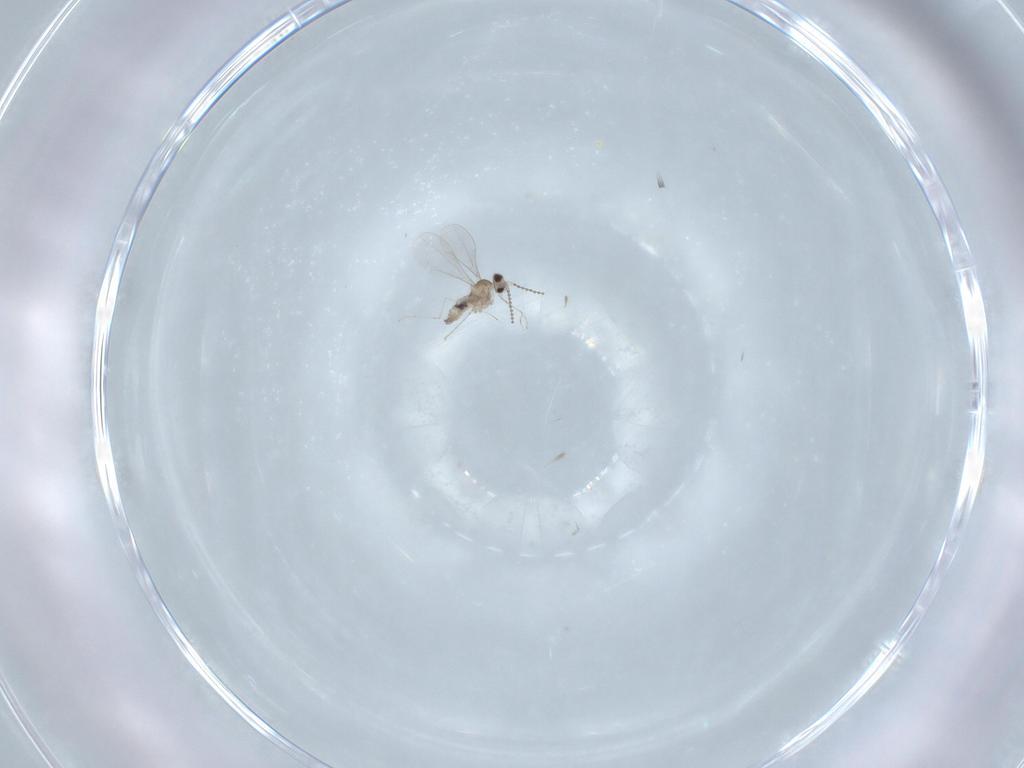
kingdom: Animalia
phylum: Arthropoda
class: Insecta
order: Diptera
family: Cecidomyiidae
